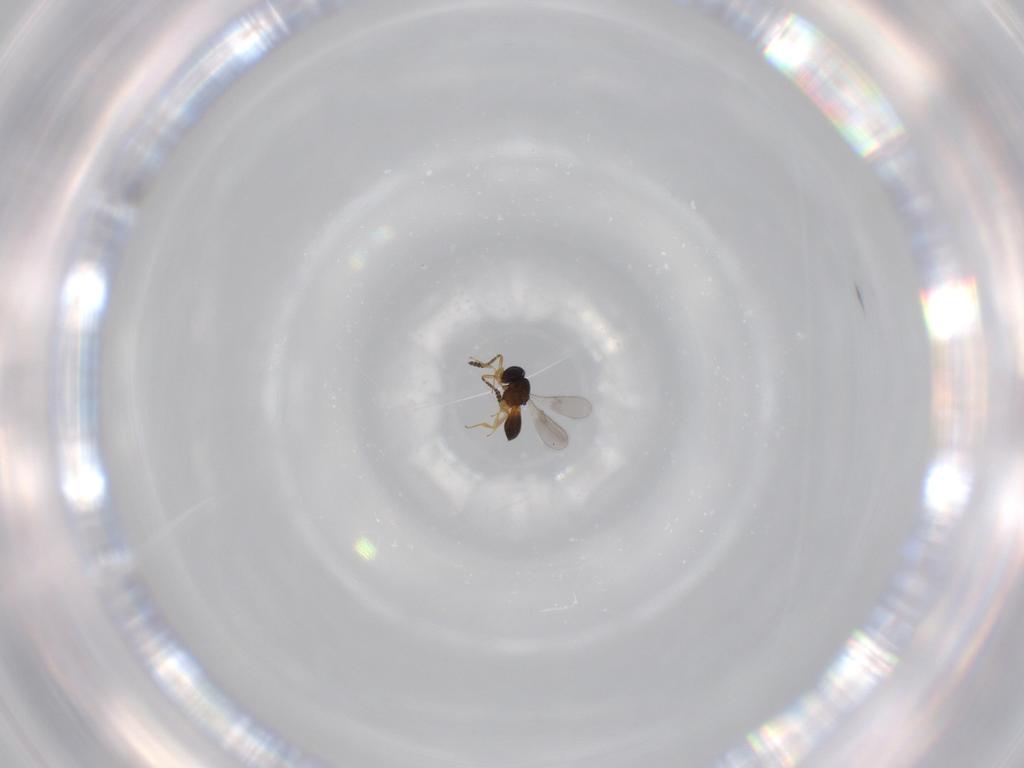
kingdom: Animalia
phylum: Arthropoda
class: Insecta
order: Hymenoptera
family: Scelionidae
